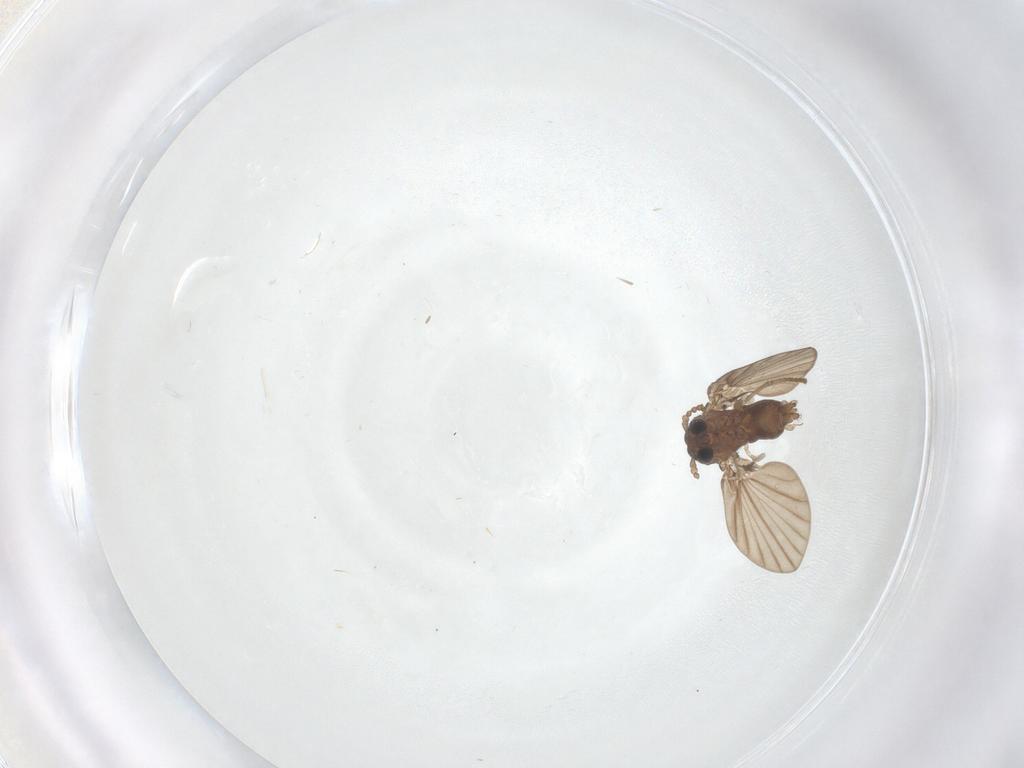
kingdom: Animalia
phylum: Arthropoda
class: Insecta
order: Diptera
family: Psychodidae
